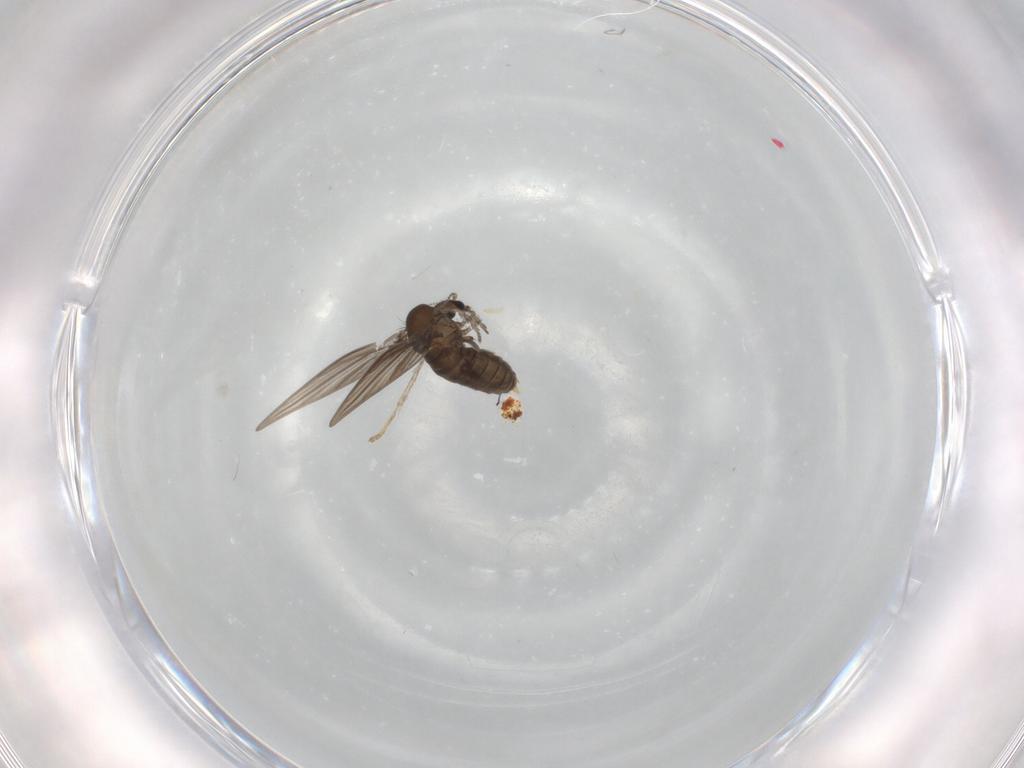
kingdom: Animalia
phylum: Arthropoda
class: Insecta
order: Diptera
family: Psychodidae
